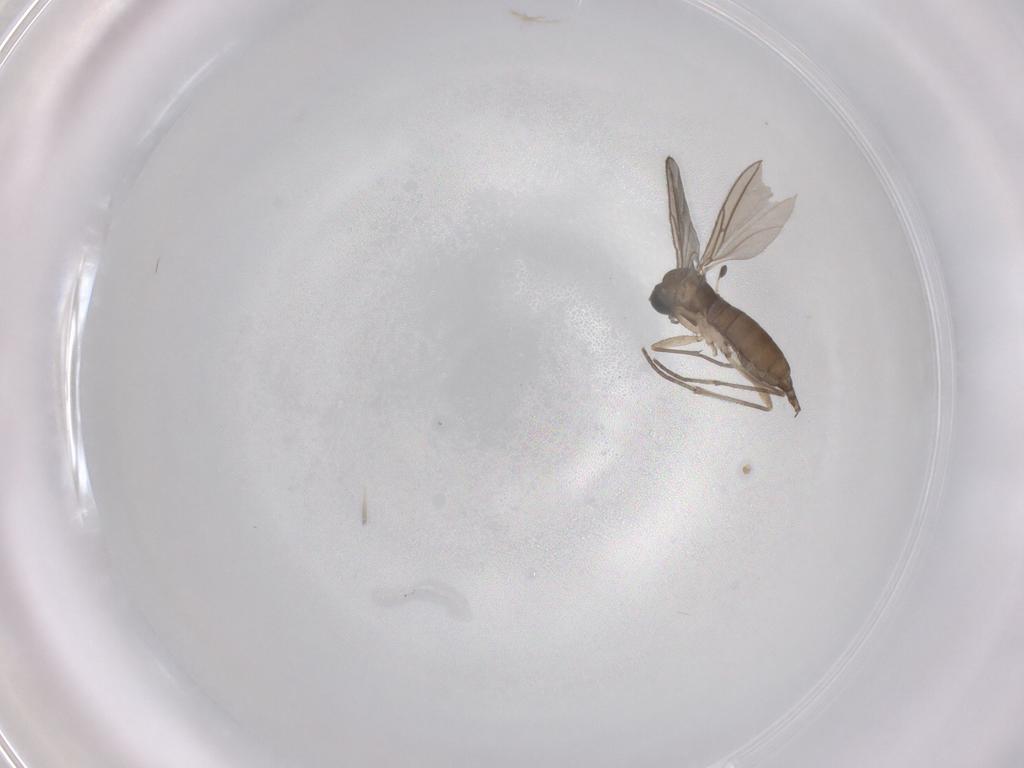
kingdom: Animalia
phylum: Arthropoda
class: Insecta
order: Diptera
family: Sciaridae
